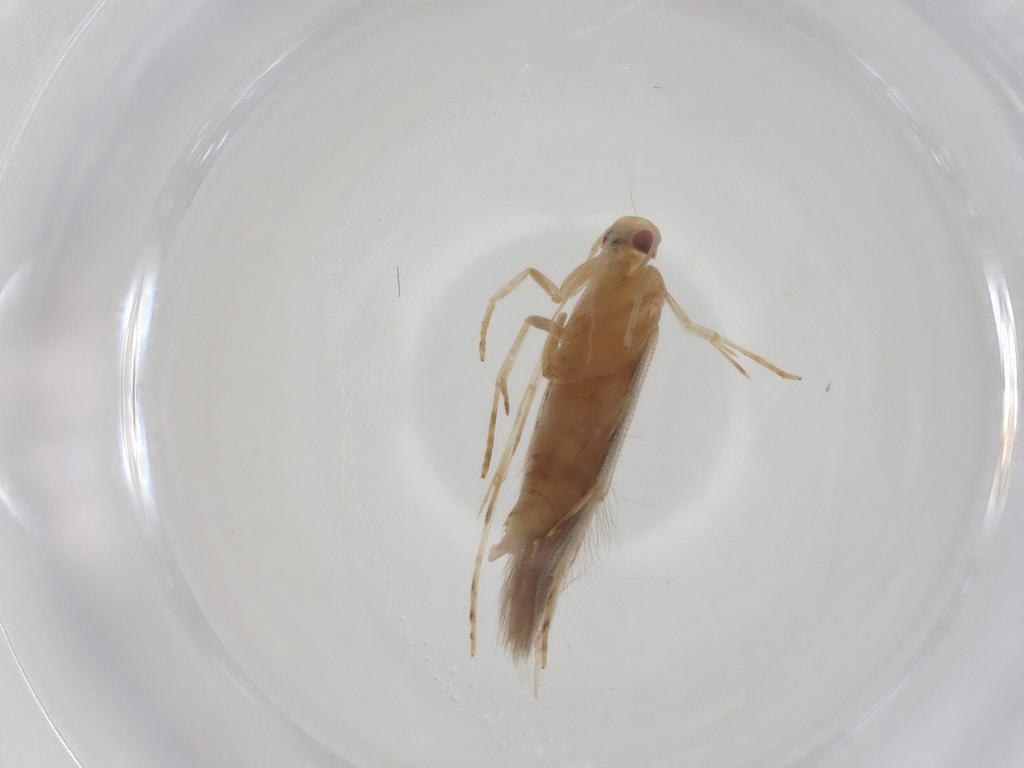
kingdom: Animalia
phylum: Arthropoda
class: Insecta
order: Lepidoptera
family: Erebidae
